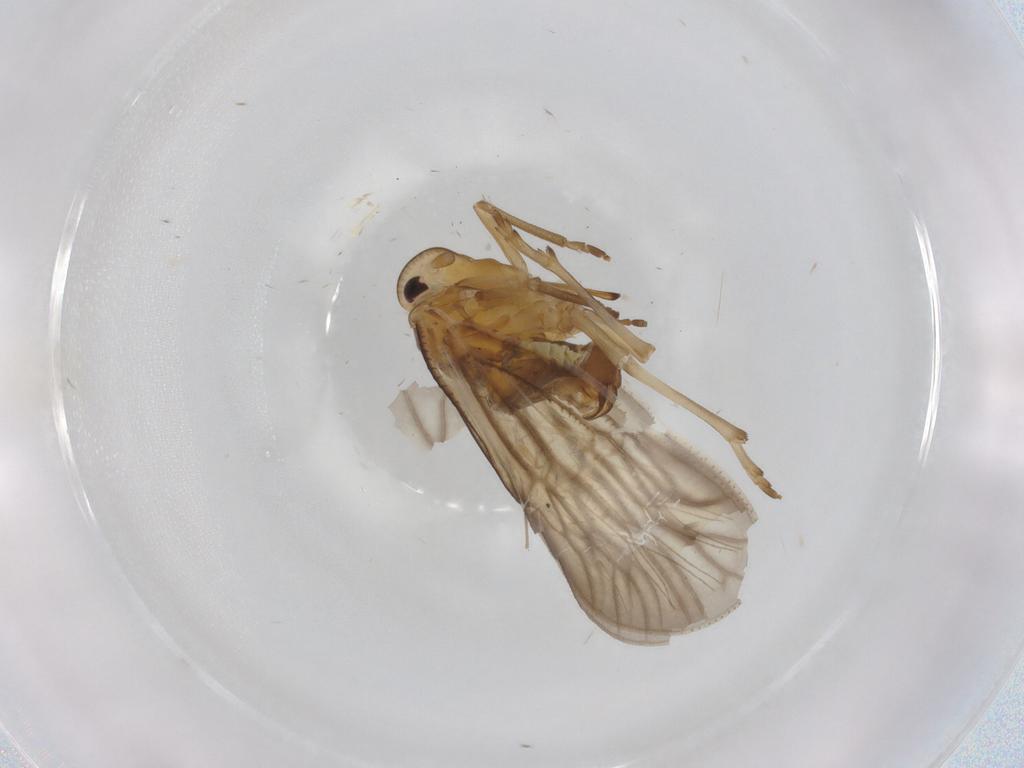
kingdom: Animalia
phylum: Arthropoda
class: Insecta
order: Hemiptera
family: Meenoplidae
